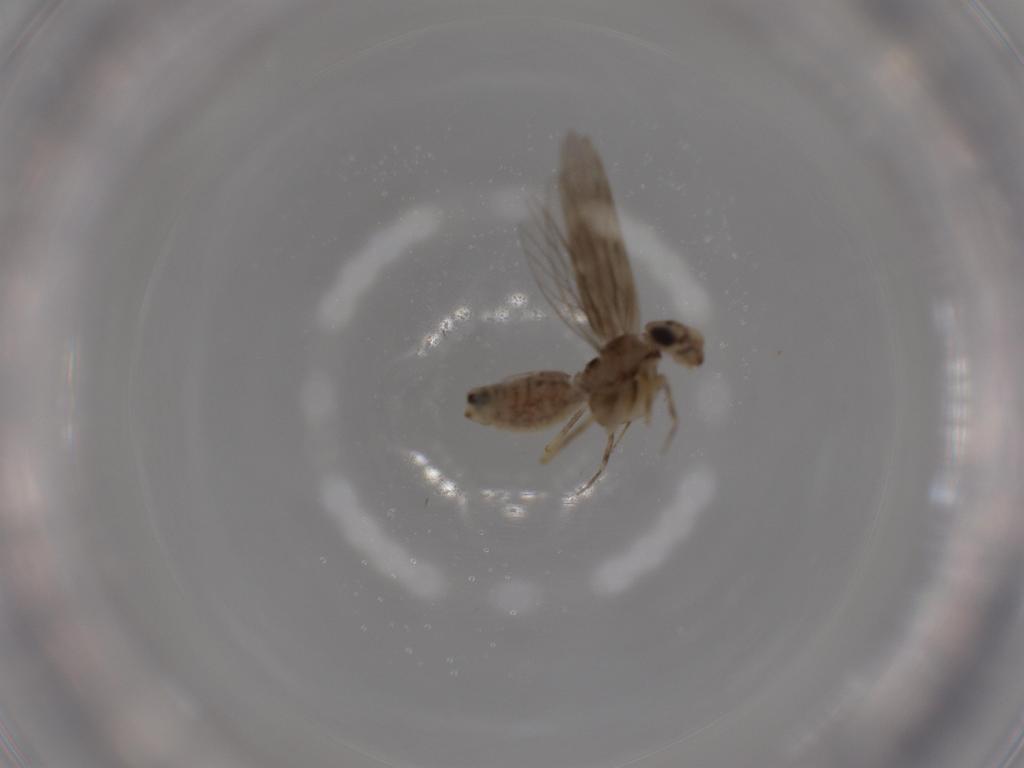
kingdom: Animalia
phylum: Arthropoda
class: Insecta
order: Psocodea
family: Lepidopsocidae
